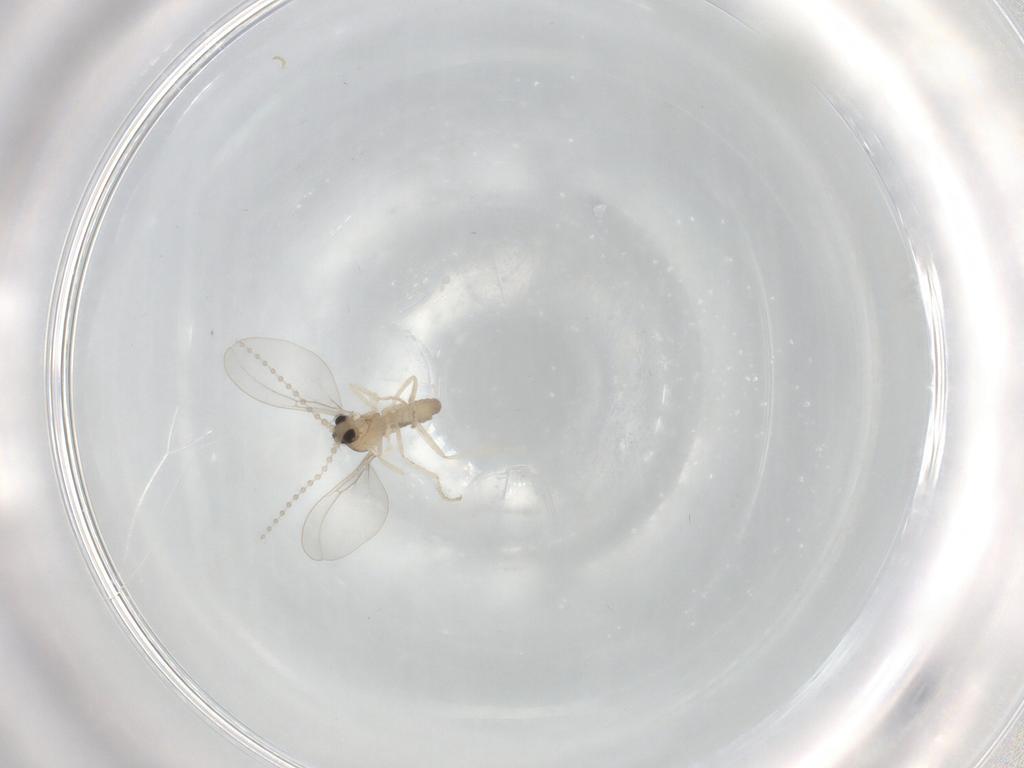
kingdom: Animalia
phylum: Arthropoda
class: Insecta
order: Diptera
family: Cecidomyiidae
